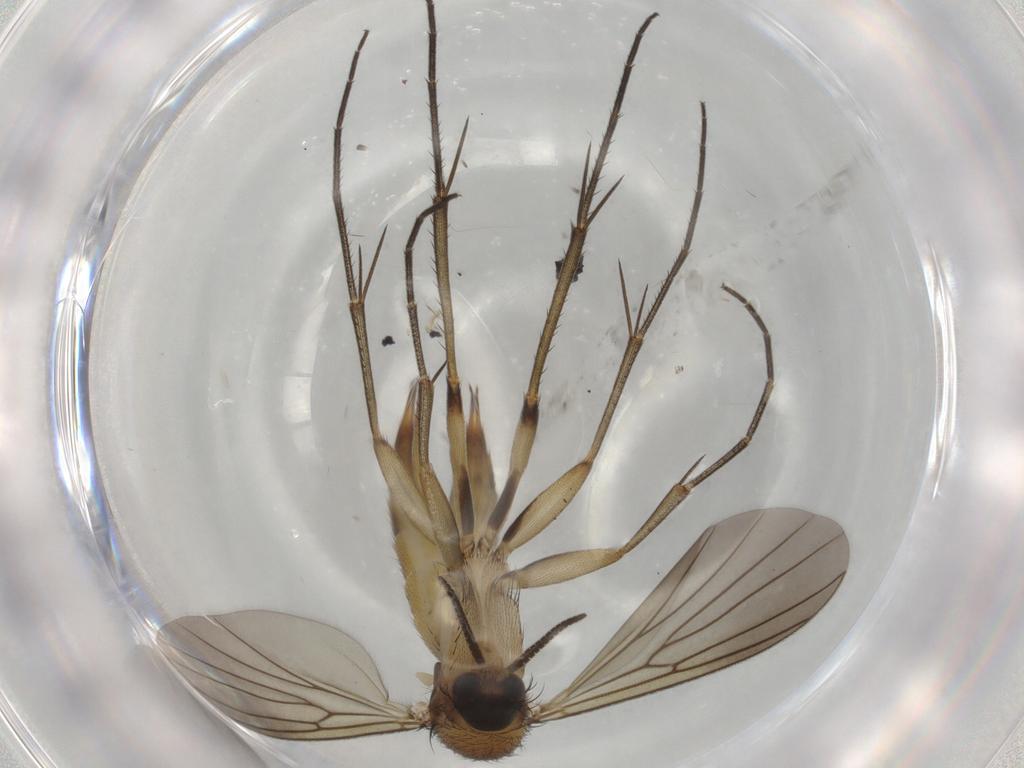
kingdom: Animalia
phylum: Arthropoda
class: Insecta
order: Diptera
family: Mycetophilidae
